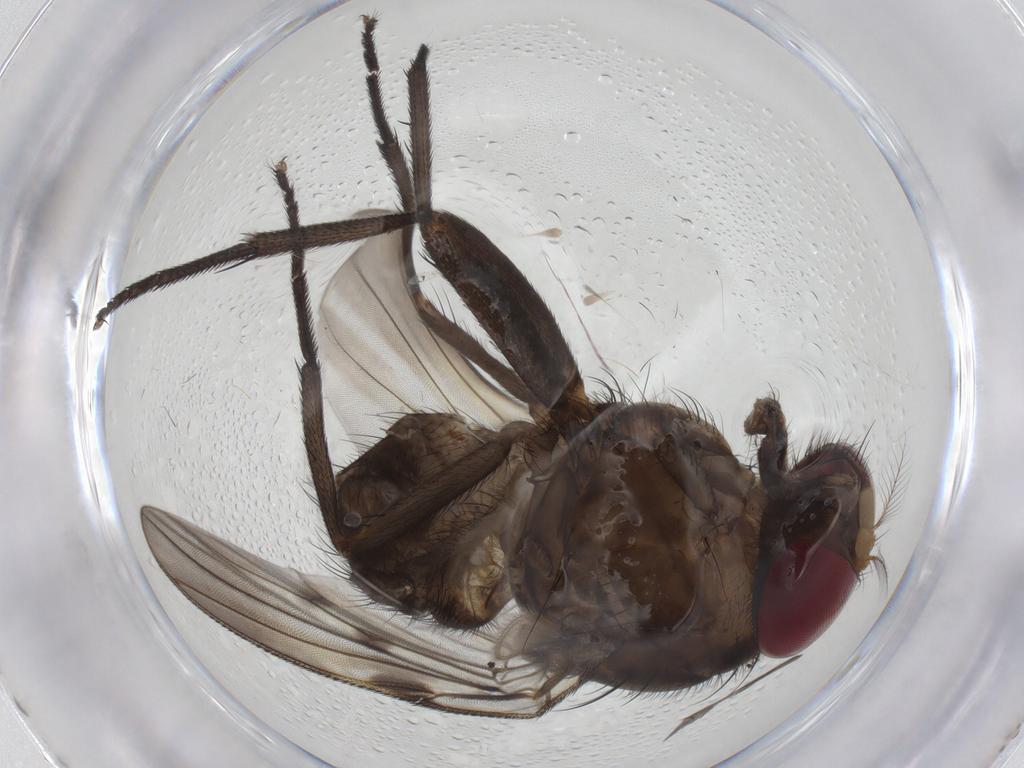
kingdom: Animalia
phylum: Arthropoda
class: Insecta
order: Diptera
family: Muscidae
